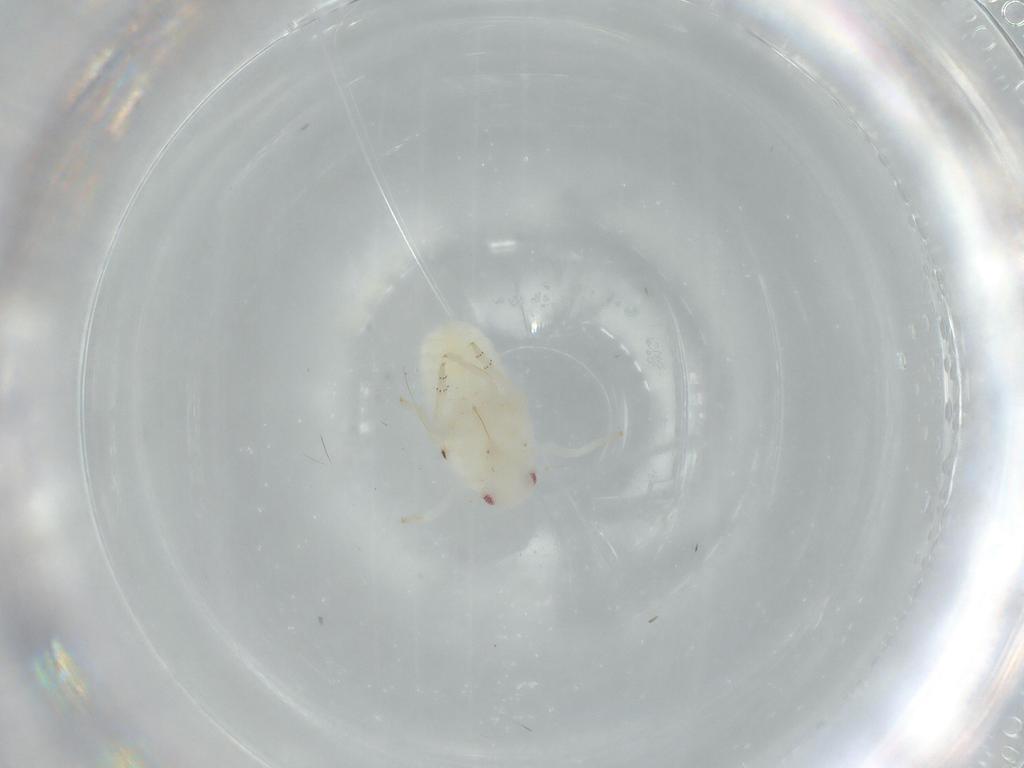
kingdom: Animalia
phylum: Arthropoda
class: Insecta
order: Hemiptera
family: Flatidae
